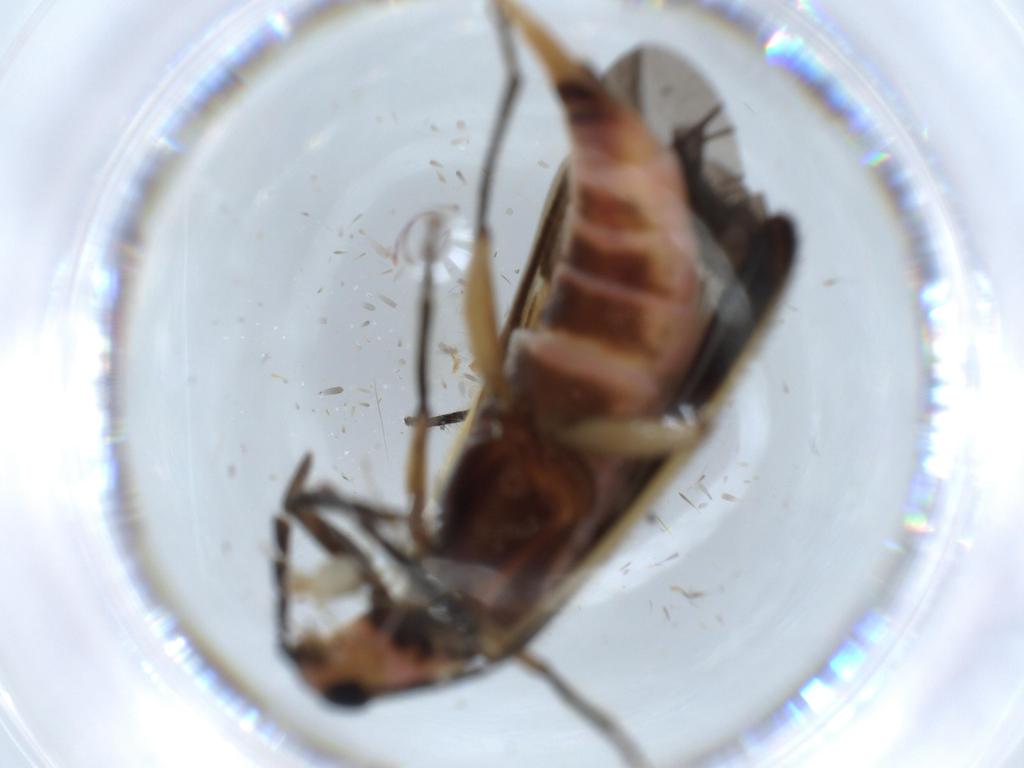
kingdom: Animalia
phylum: Arthropoda
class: Insecta
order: Coleoptera
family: Cleridae
